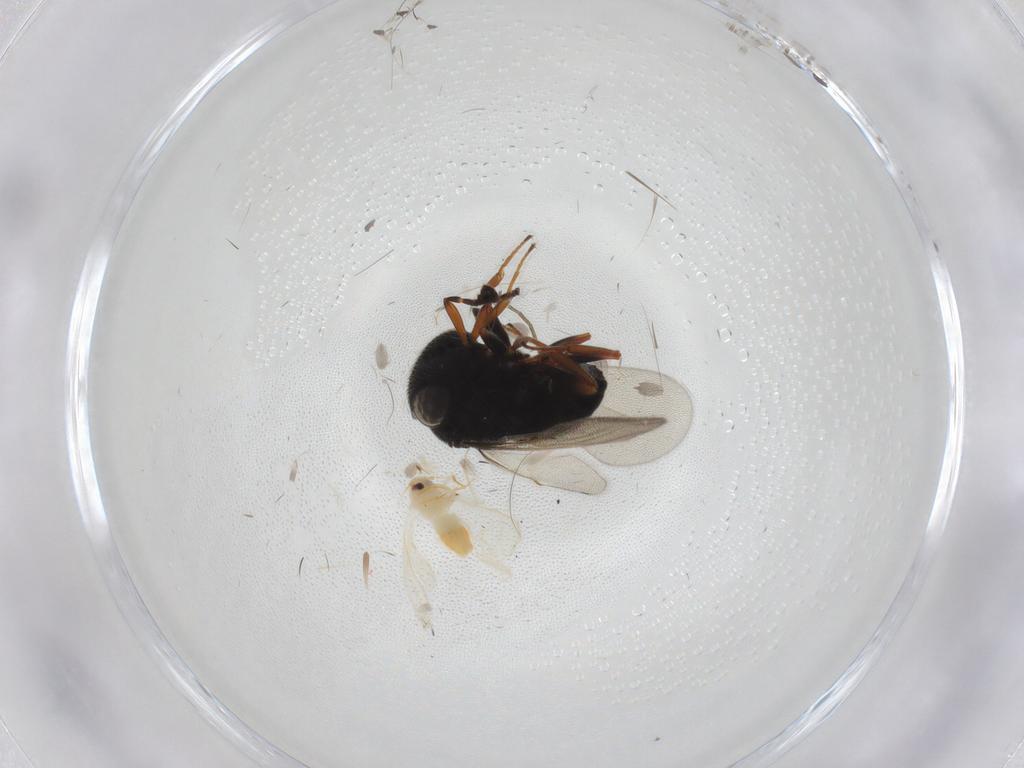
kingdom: Animalia
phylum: Arthropoda
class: Insecta
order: Hymenoptera
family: Scelionidae
